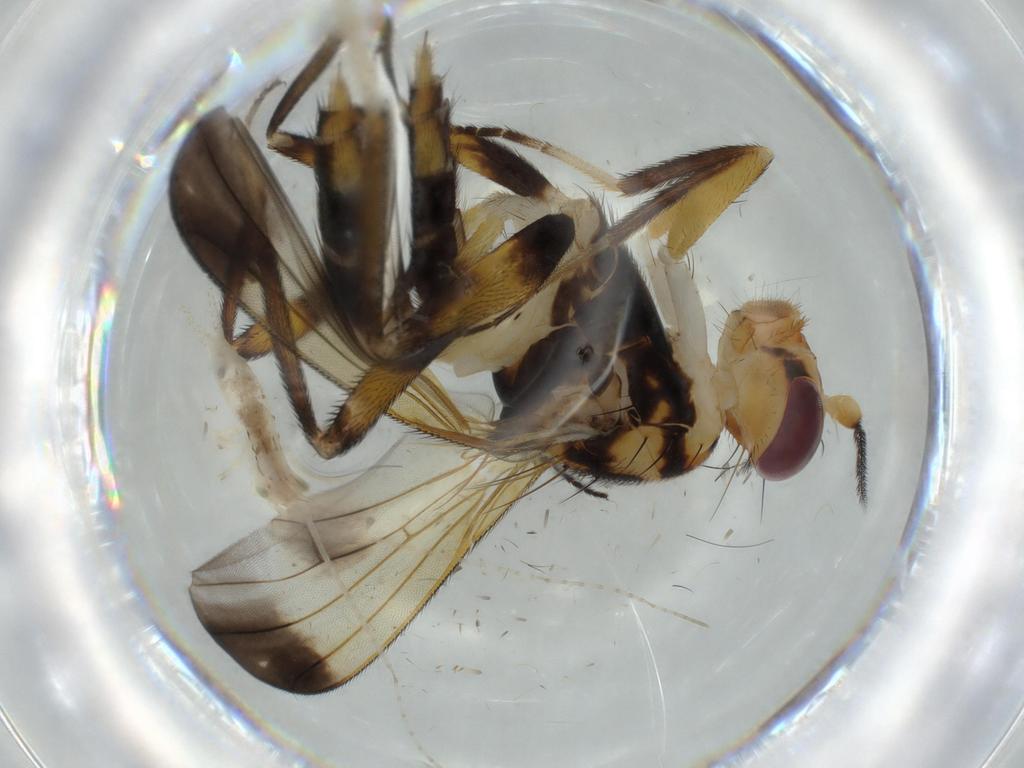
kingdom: Animalia
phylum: Arthropoda
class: Insecta
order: Diptera
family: Clusiidae
